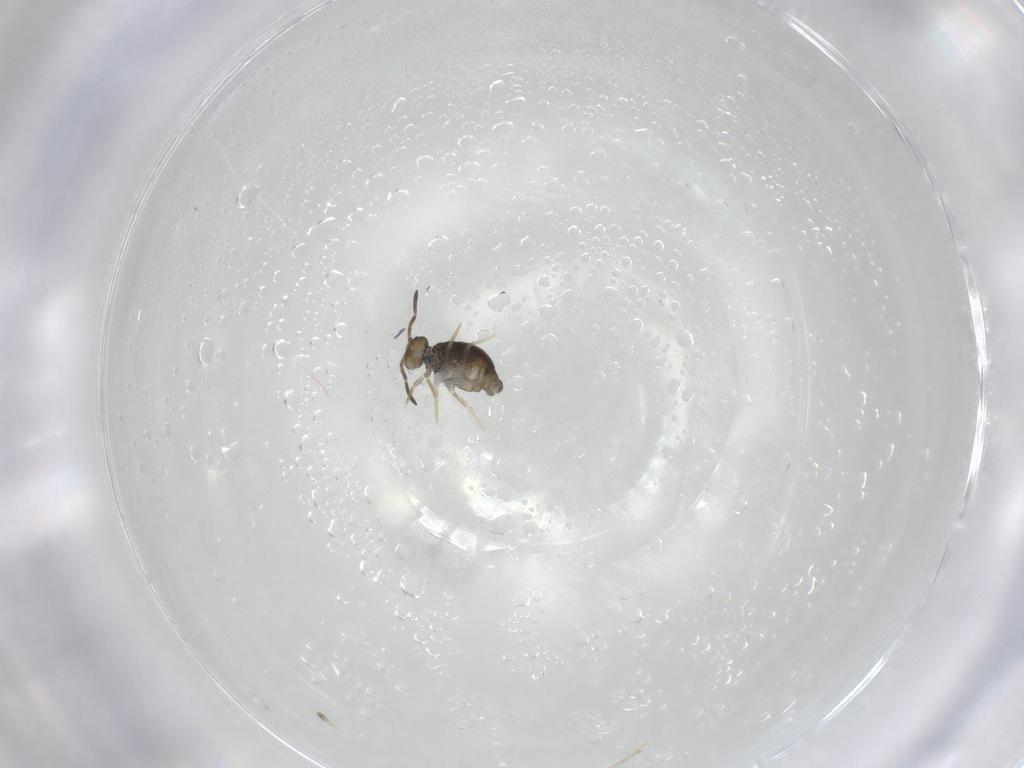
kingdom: Animalia
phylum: Arthropoda
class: Collembola
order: Symphypleona
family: Katiannidae
